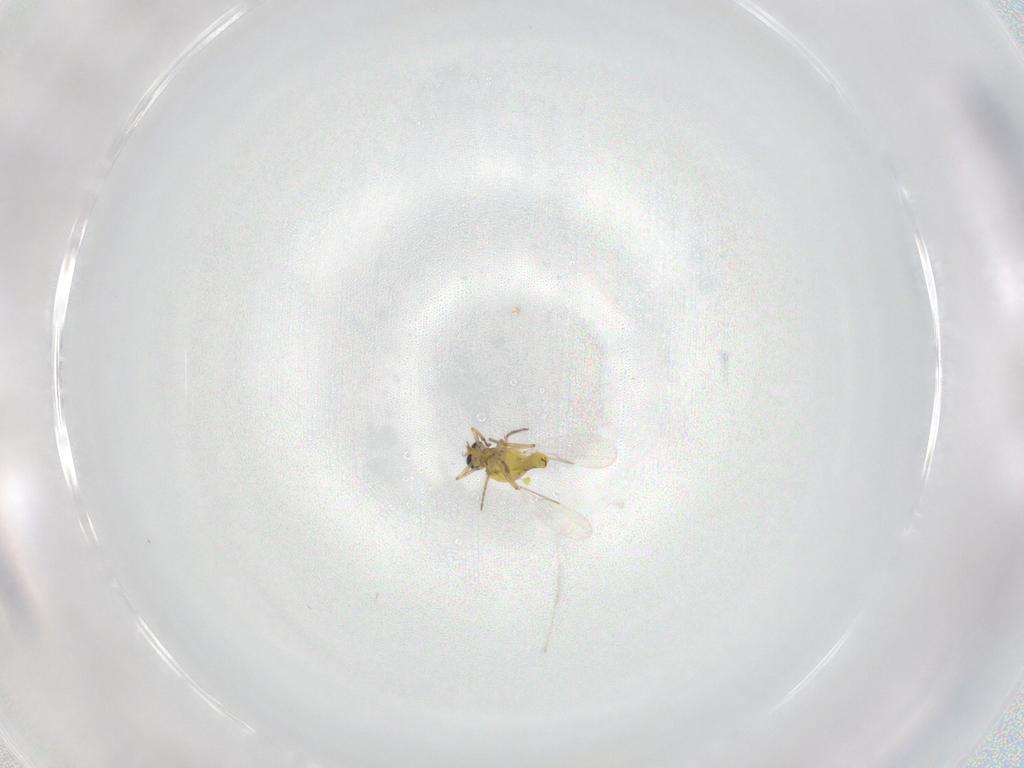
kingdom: Animalia
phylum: Arthropoda
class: Insecta
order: Diptera
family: Ceratopogonidae
